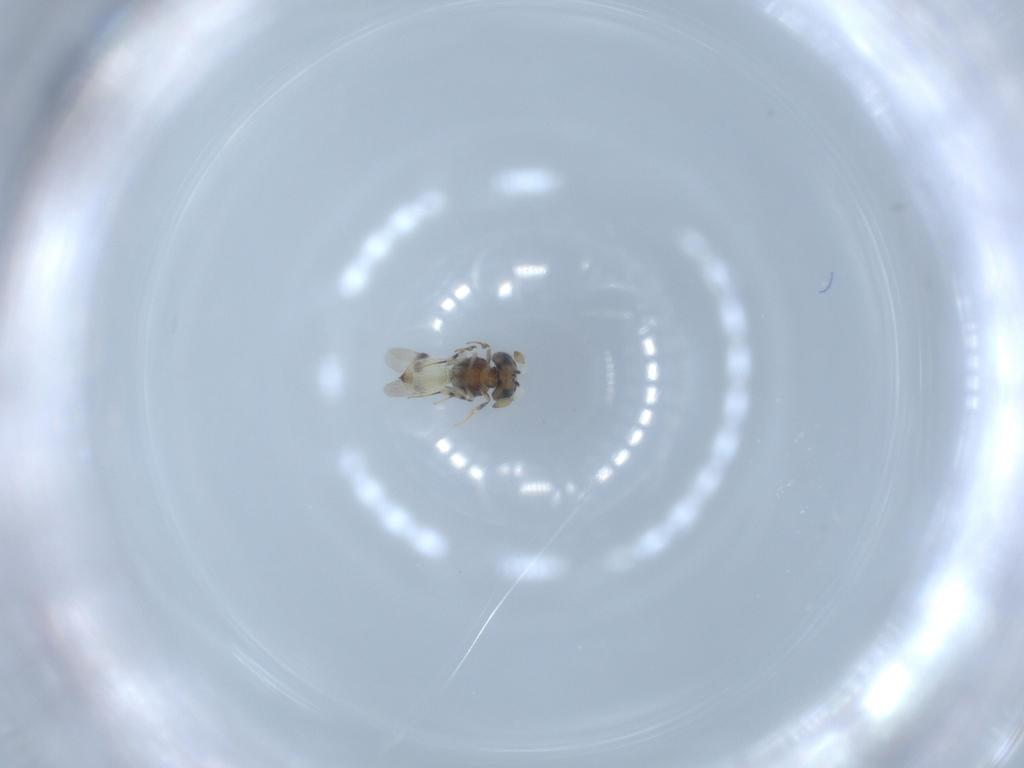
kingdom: Animalia
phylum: Arthropoda
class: Insecta
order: Hymenoptera
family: Scelionidae
